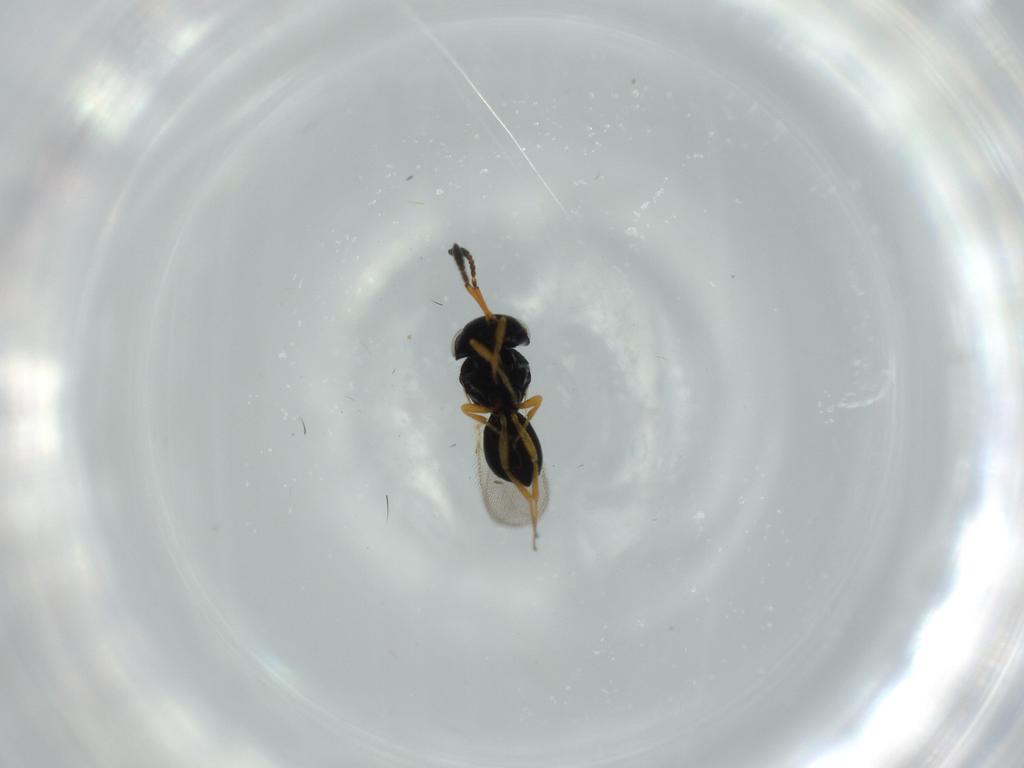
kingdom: Animalia
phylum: Arthropoda
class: Insecta
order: Hymenoptera
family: Scelionidae
